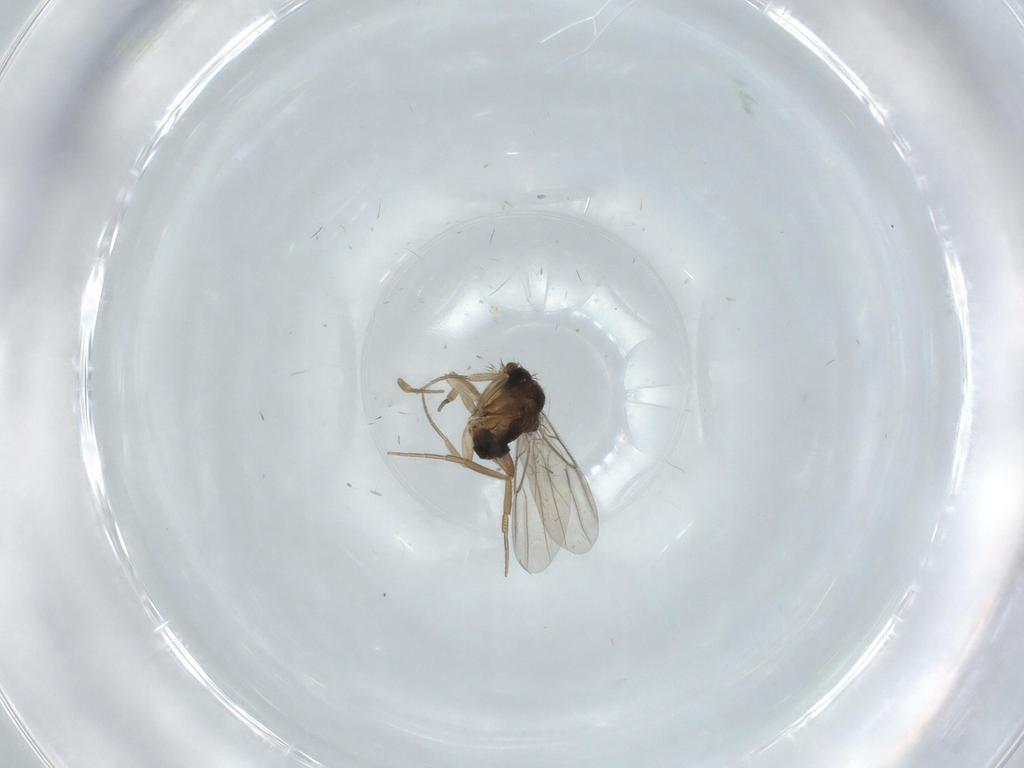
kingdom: Animalia
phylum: Arthropoda
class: Insecta
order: Diptera
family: Phoridae
